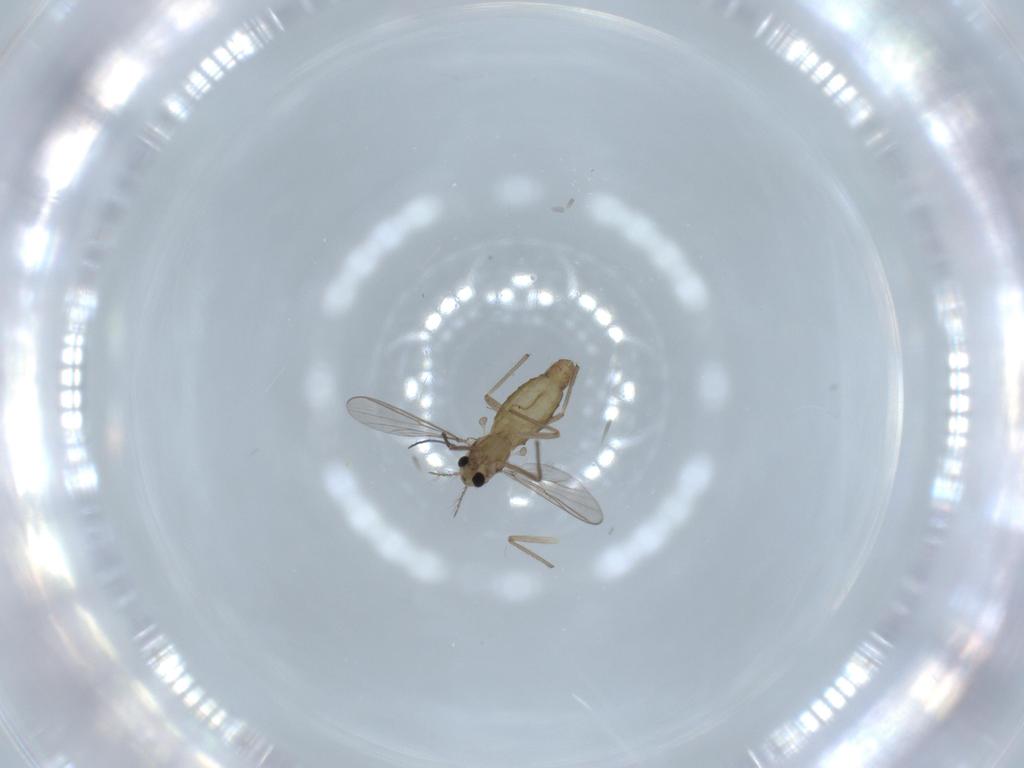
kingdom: Animalia
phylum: Arthropoda
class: Insecta
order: Diptera
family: Chironomidae
